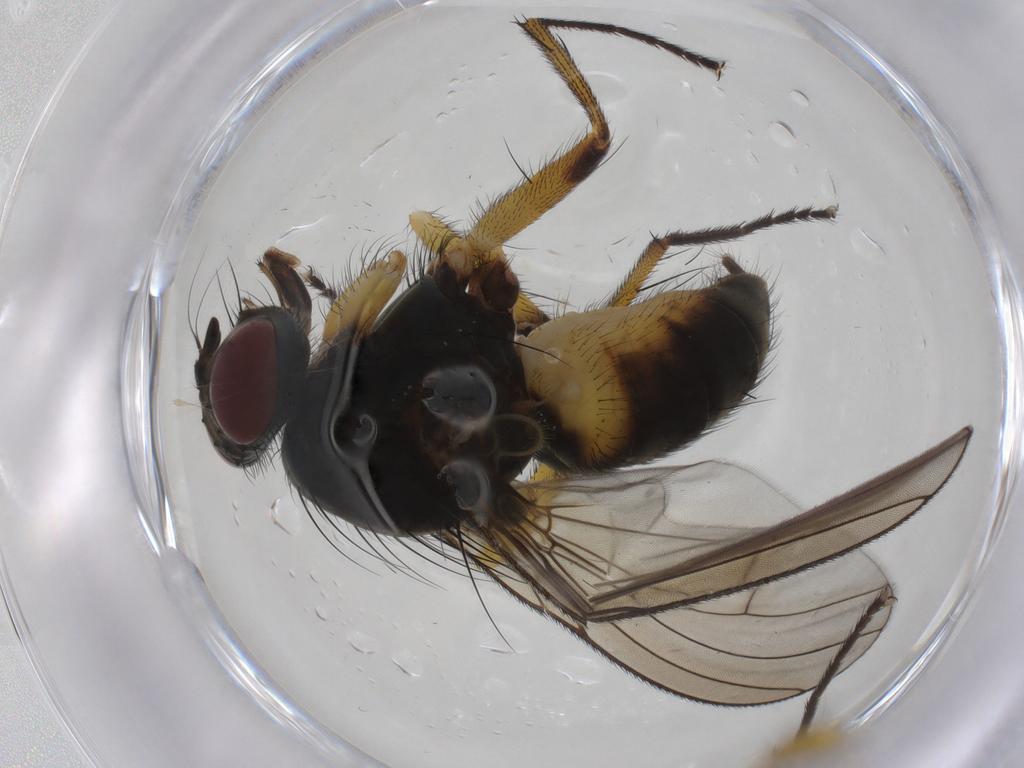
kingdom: Animalia
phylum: Arthropoda
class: Insecta
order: Diptera
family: Muscidae
